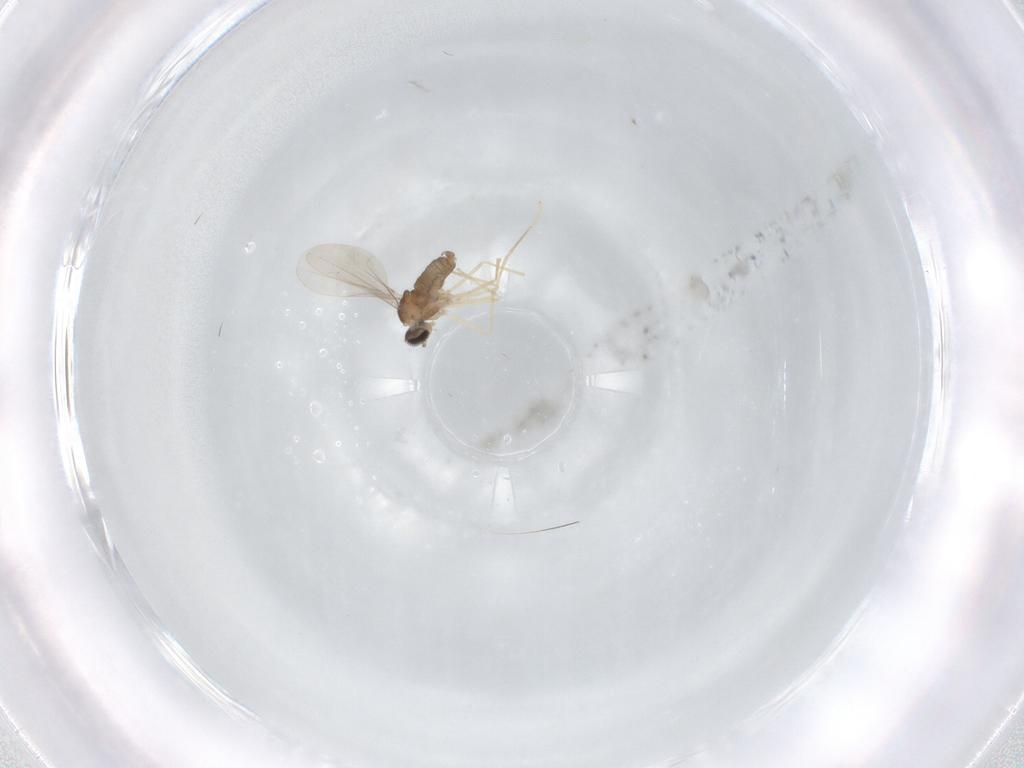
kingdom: Animalia
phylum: Arthropoda
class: Insecta
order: Diptera
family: Cecidomyiidae
